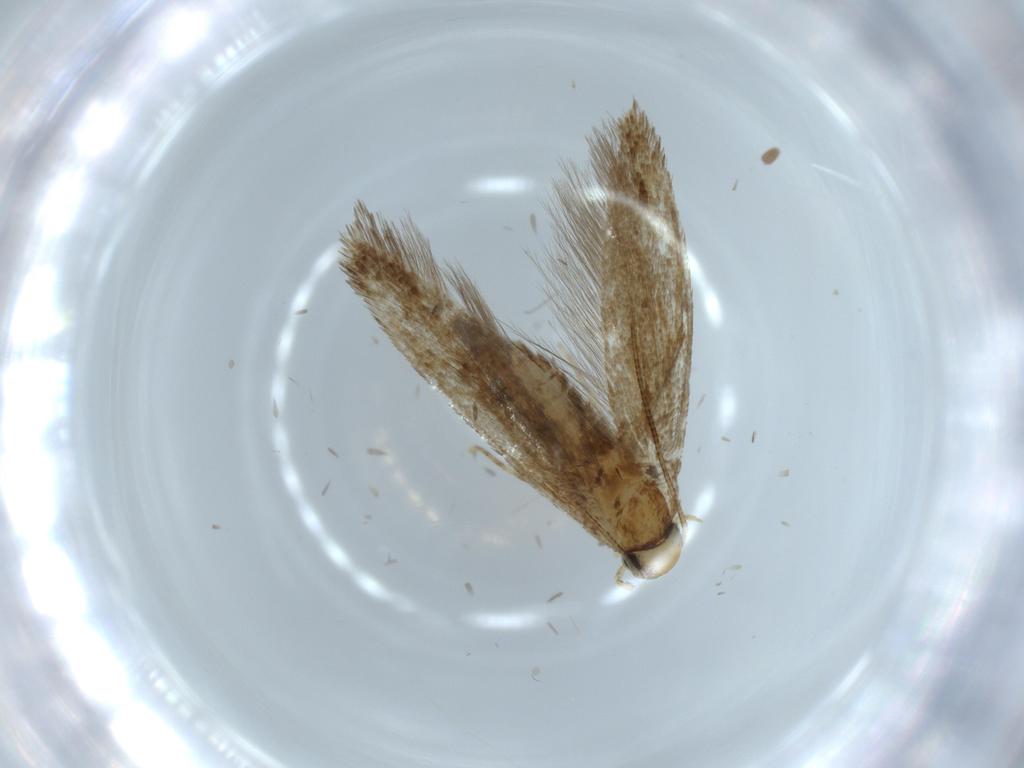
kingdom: Animalia
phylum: Arthropoda
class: Insecta
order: Lepidoptera
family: Tineidae
